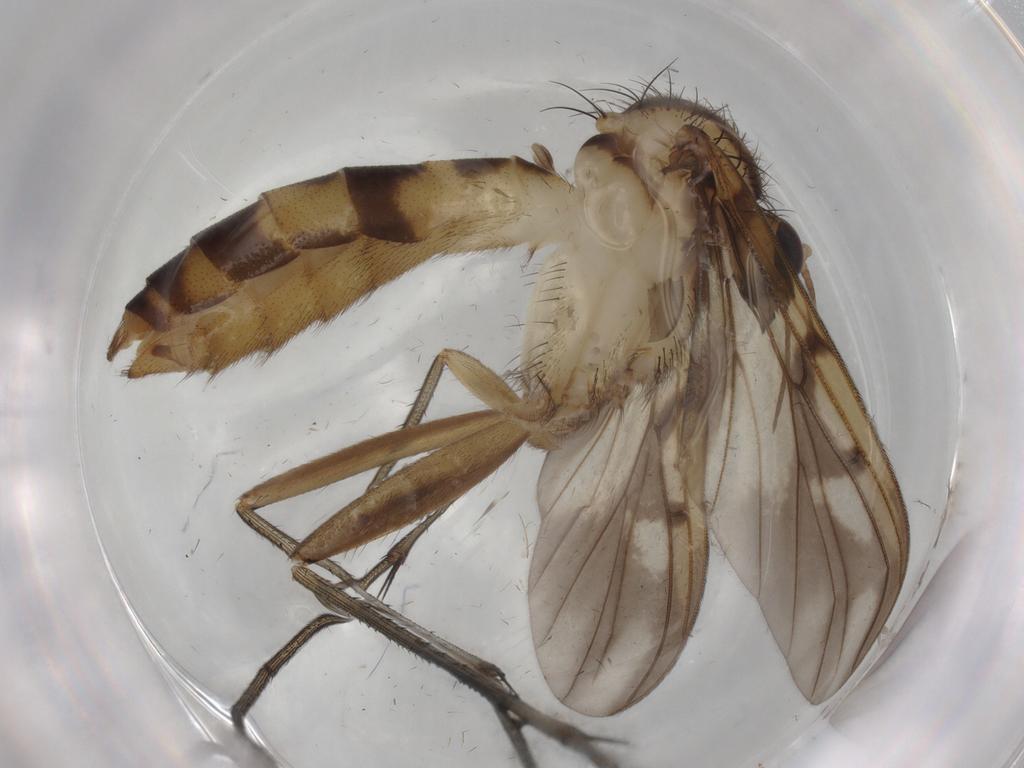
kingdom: Animalia
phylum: Arthropoda
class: Insecta
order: Diptera
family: Mycetophilidae
